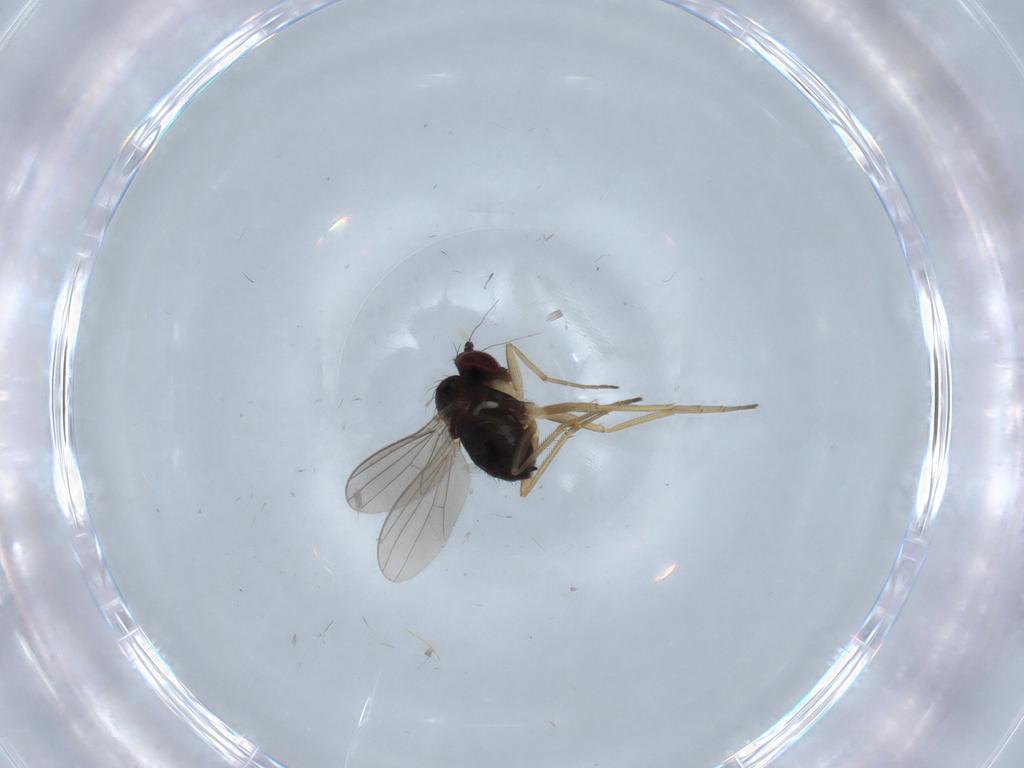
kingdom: Animalia
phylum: Arthropoda
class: Insecta
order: Diptera
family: Dolichopodidae
